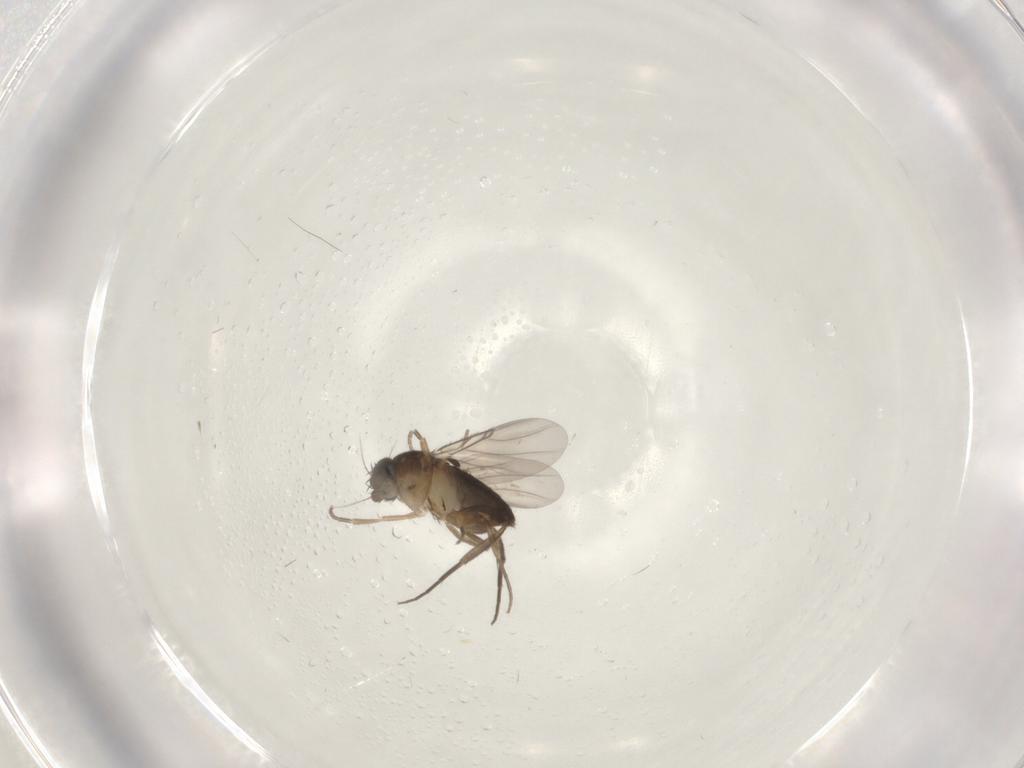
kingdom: Animalia
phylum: Arthropoda
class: Insecta
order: Diptera
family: Phoridae
